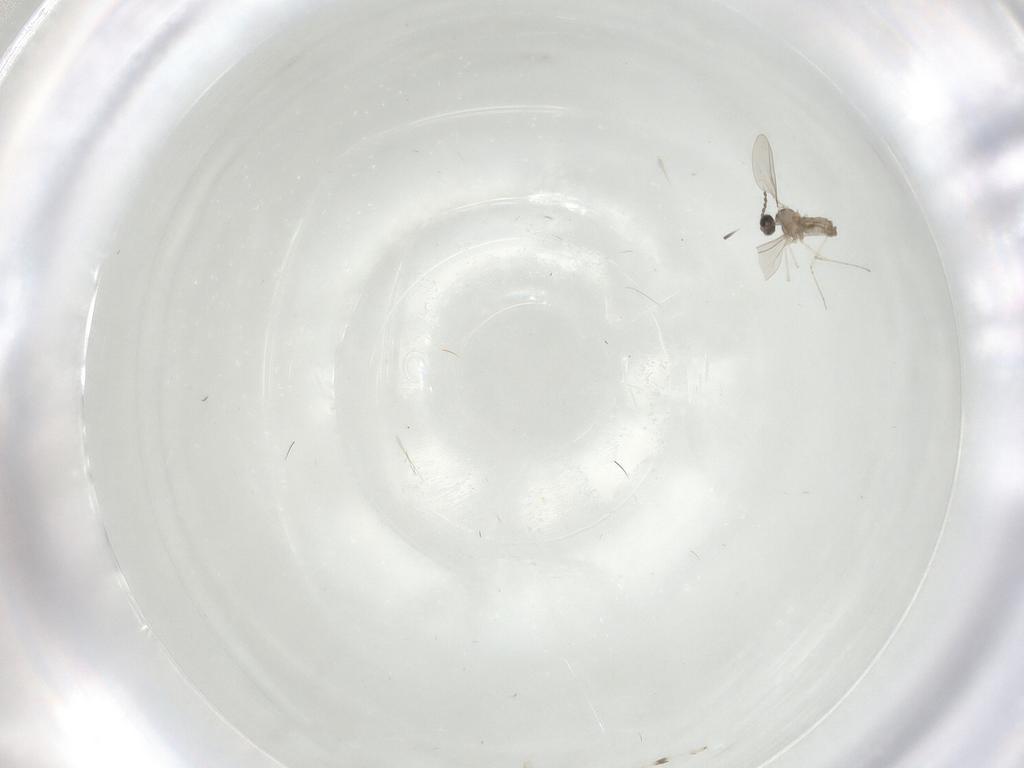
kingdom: Animalia
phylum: Arthropoda
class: Insecta
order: Diptera
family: Cecidomyiidae
